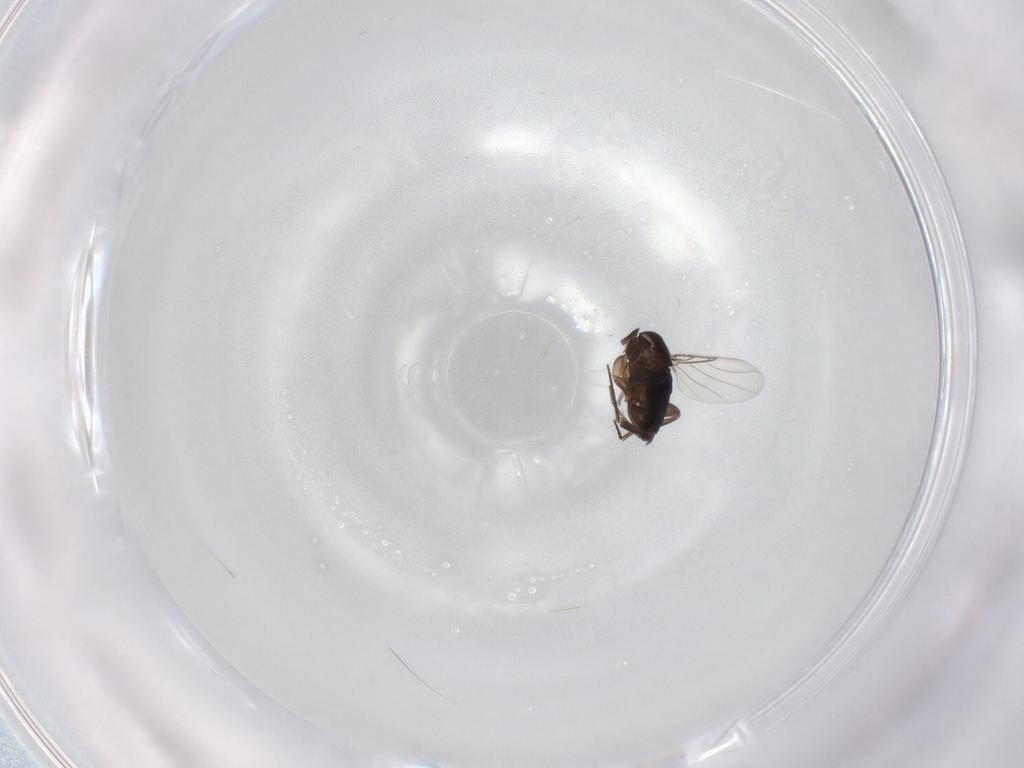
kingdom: Animalia
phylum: Arthropoda
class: Insecta
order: Diptera
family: Phoridae
